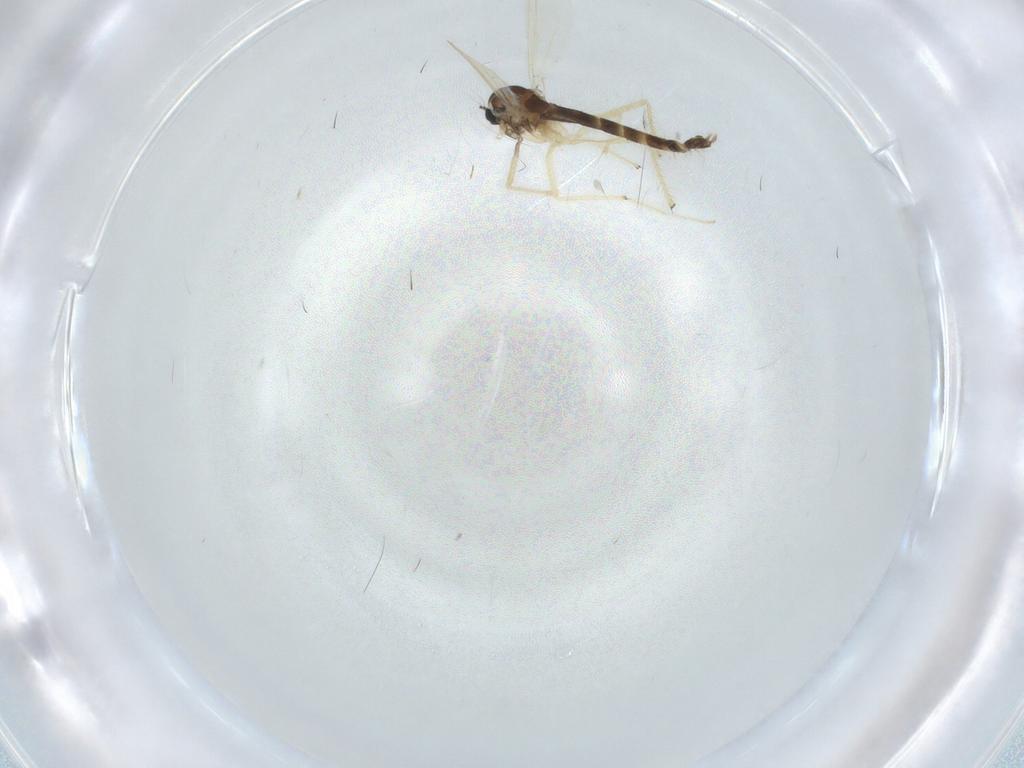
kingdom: Animalia
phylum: Arthropoda
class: Insecta
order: Diptera
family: Chironomidae
